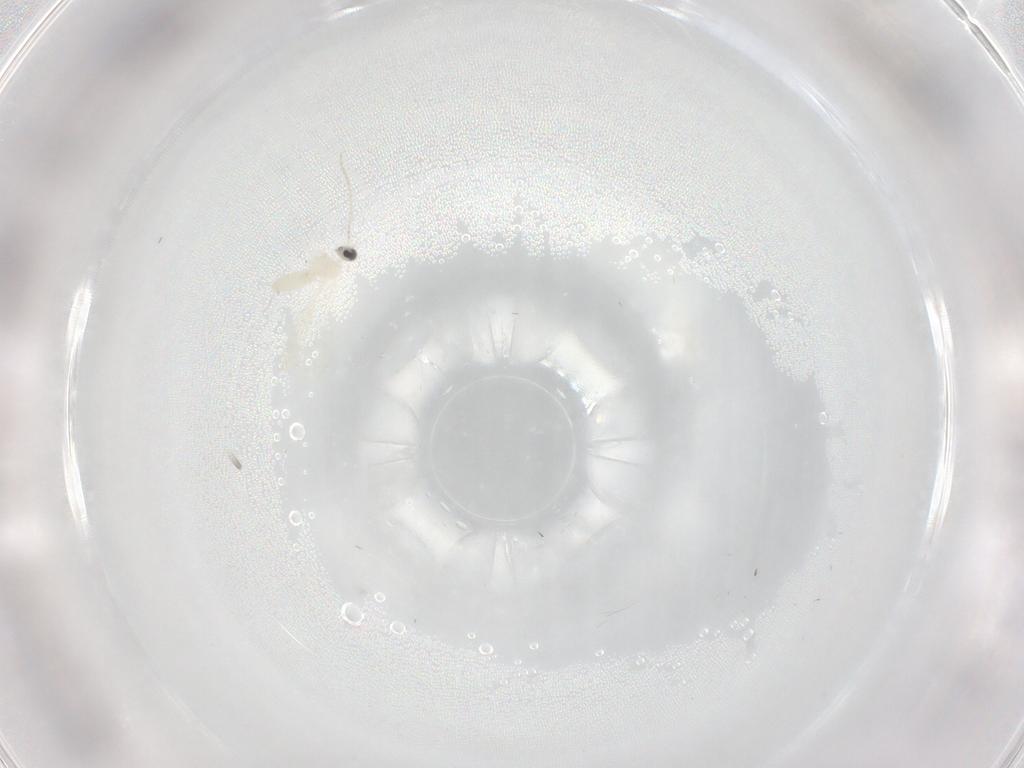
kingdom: Animalia
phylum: Arthropoda
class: Insecta
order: Diptera
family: Cecidomyiidae
